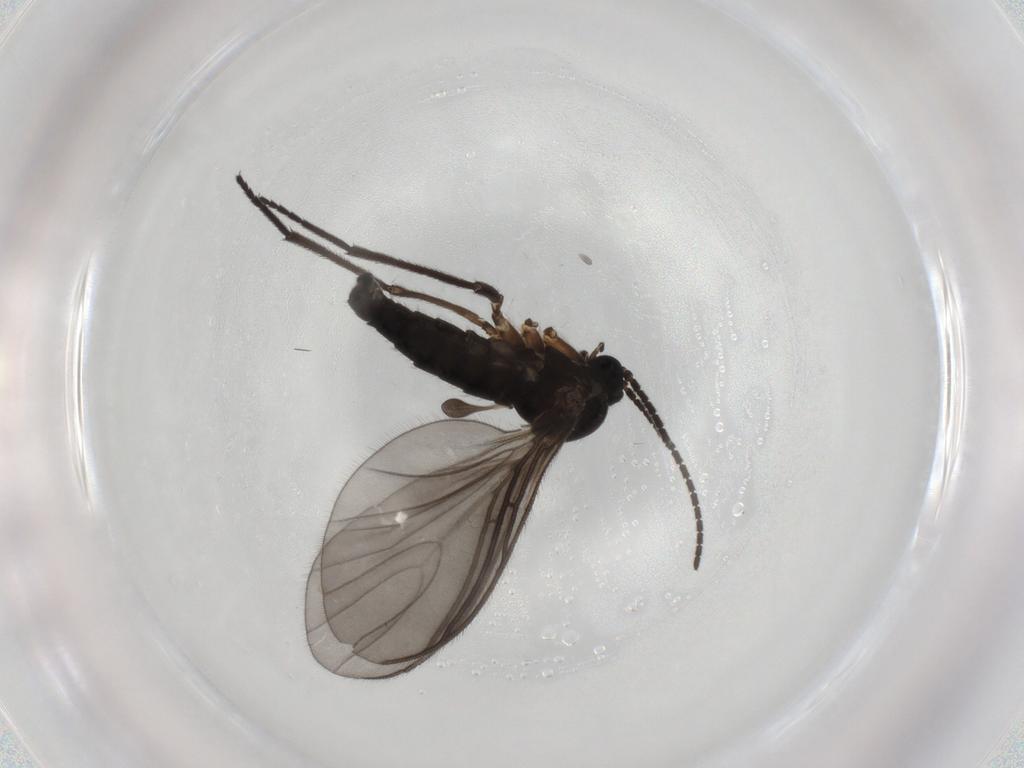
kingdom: Animalia
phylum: Arthropoda
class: Insecta
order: Diptera
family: Sciaridae
